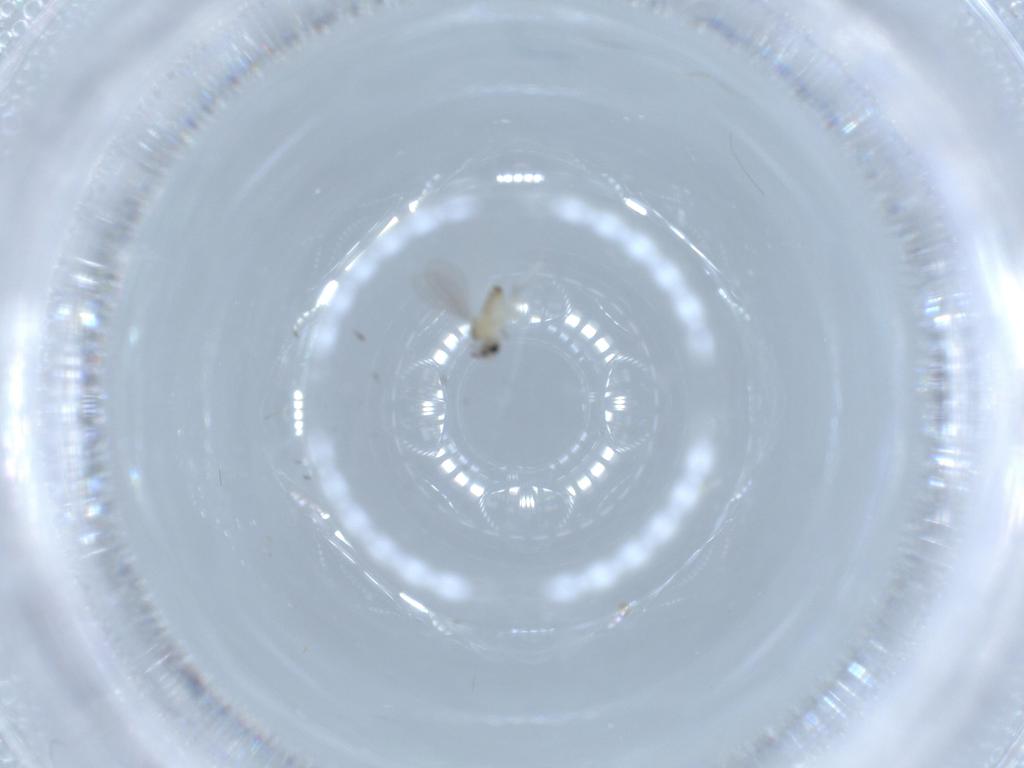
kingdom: Animalia
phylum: Arthropoda
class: Insecta
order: Diptera
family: Cecidomyiidae
